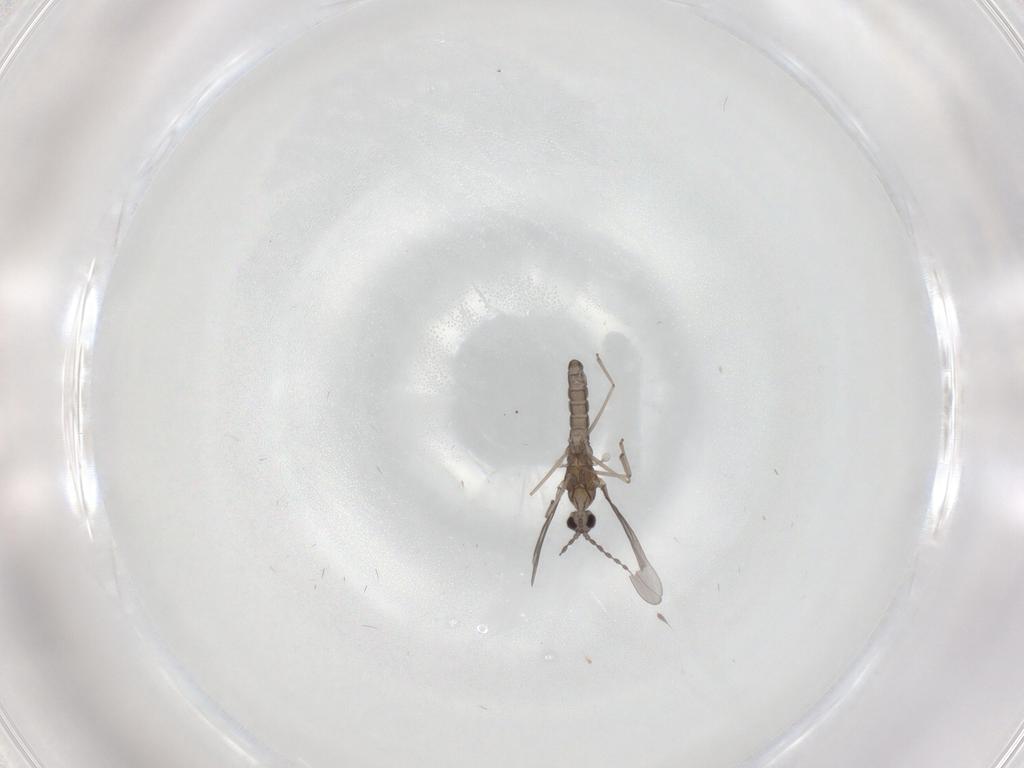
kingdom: Animalia
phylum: Arthropoda
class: Insecta
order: Diptera
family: Cecidomyiidae
